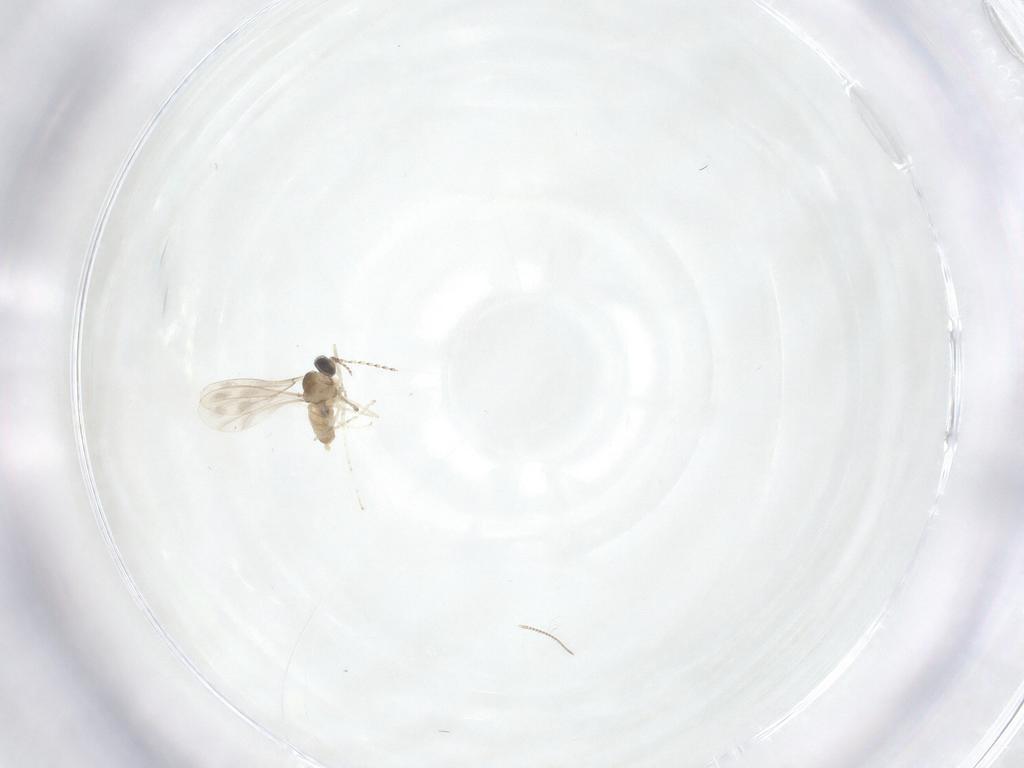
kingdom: Animalia
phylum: Arthropoda
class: Insecta
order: Diptera
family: Cecidomyiidae
